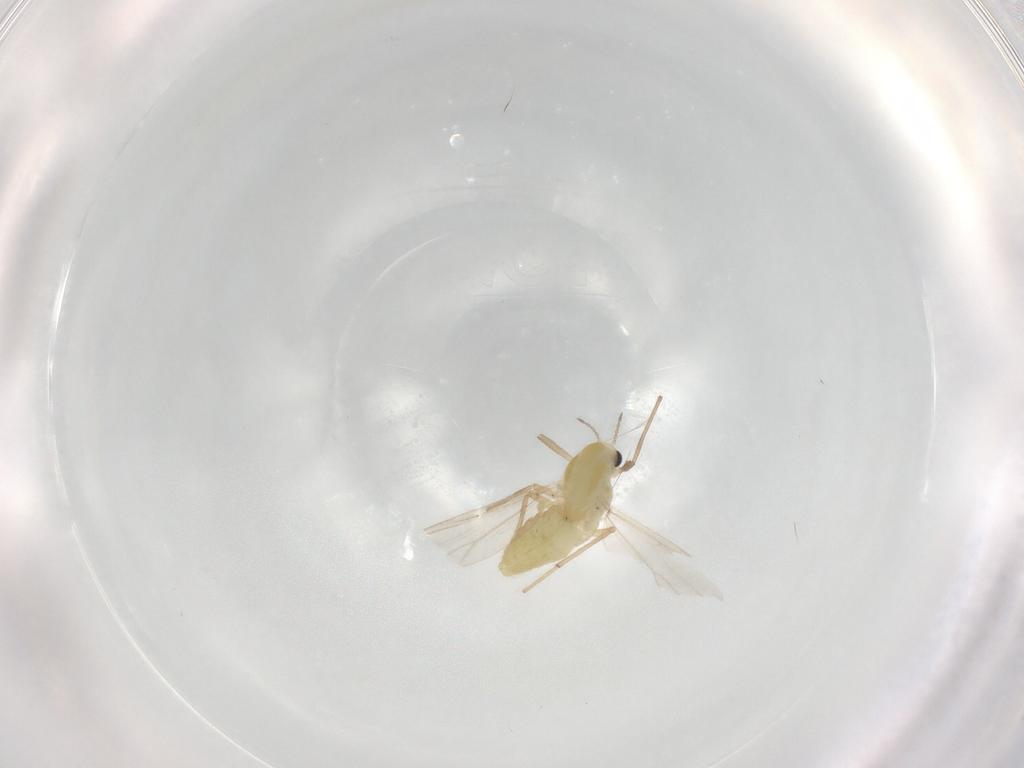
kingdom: Animalia
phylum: Arthropoda
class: Insecta
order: Diptera
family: Chironomidae
